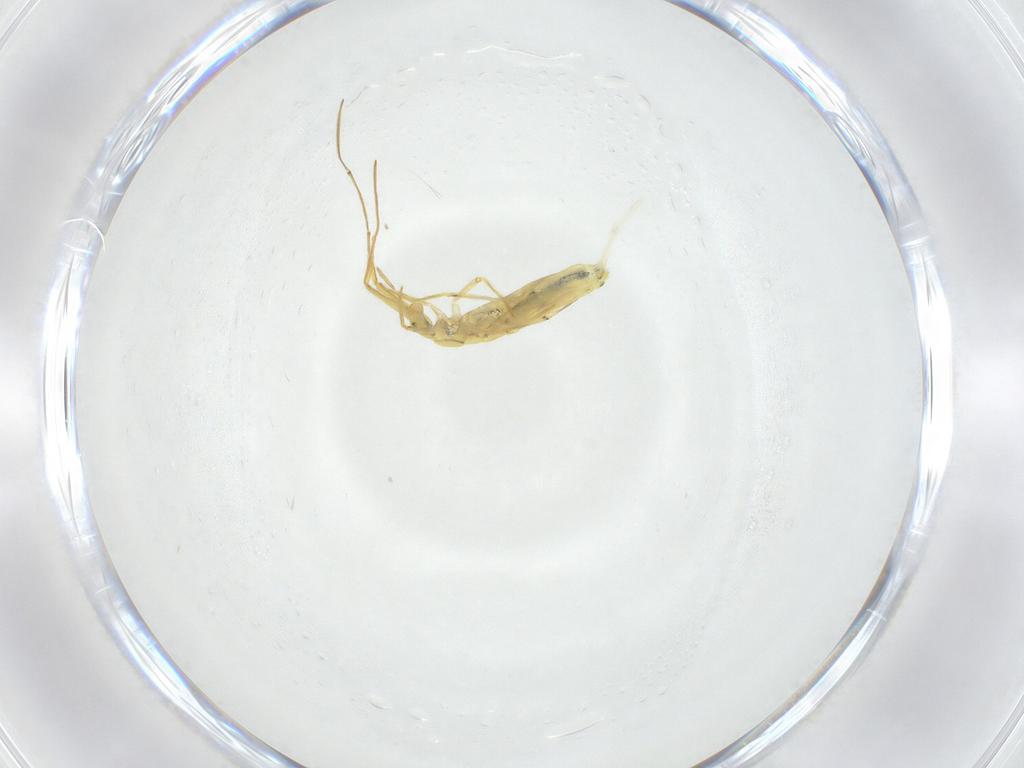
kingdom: Animalia
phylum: Arthropoda
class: Collembola
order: Entomobryomorpha
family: Entomobryidae
